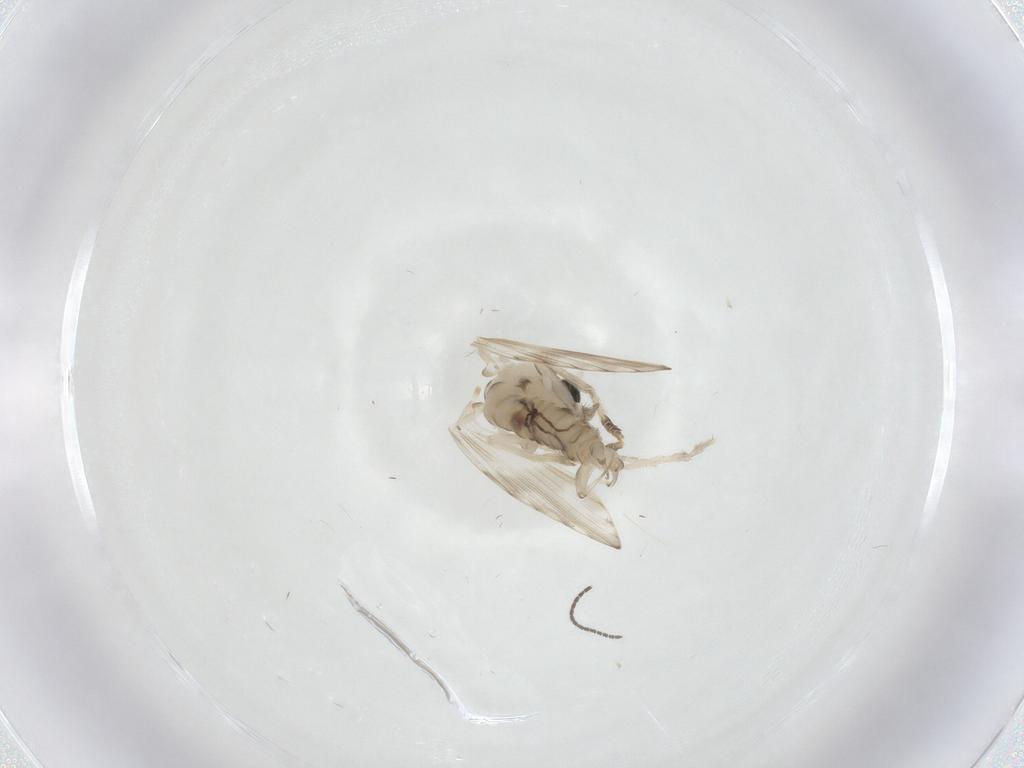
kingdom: Animalia
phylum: Arthropoda
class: Insecta
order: Diptera
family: Psychodidae
